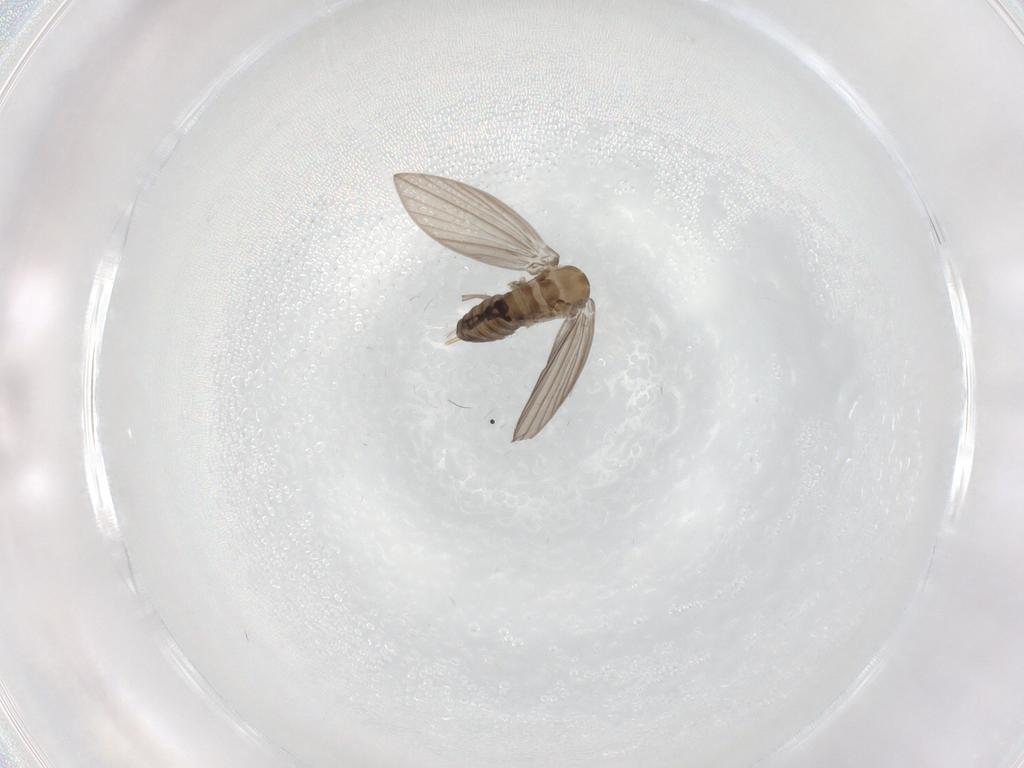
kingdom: Animalia
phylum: Arthropoda
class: Insecta
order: Diptera
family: Psychodidae
